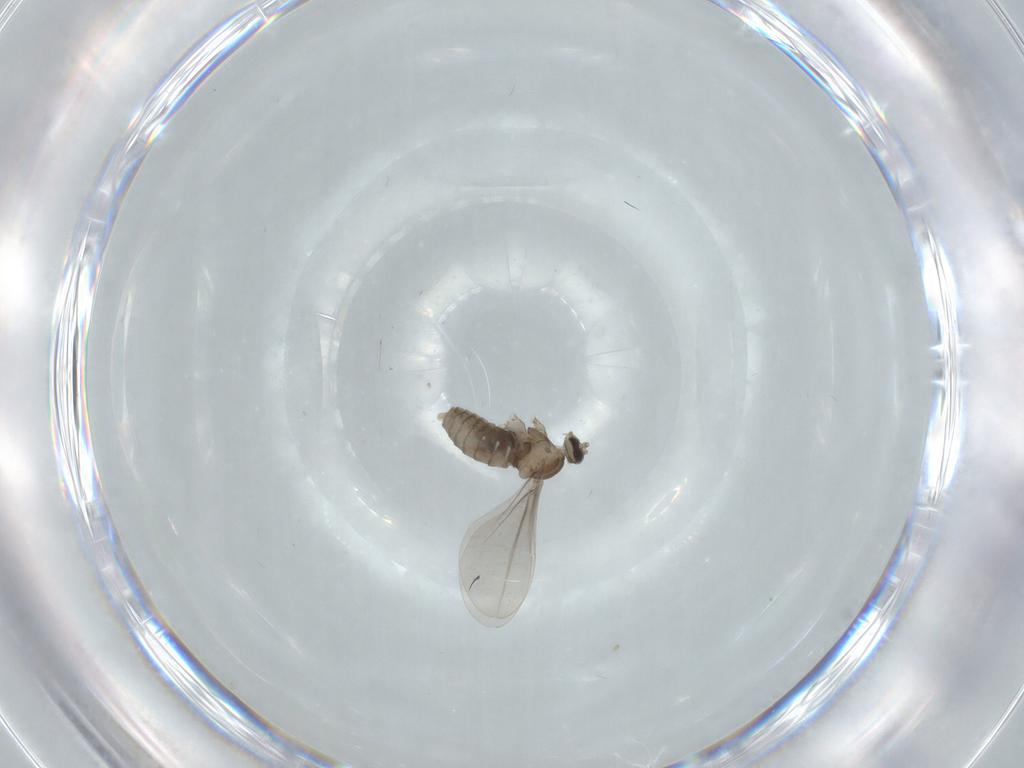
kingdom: Animalia
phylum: Arthropoda
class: Insecta
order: Diptera
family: Cecidomyiidae
